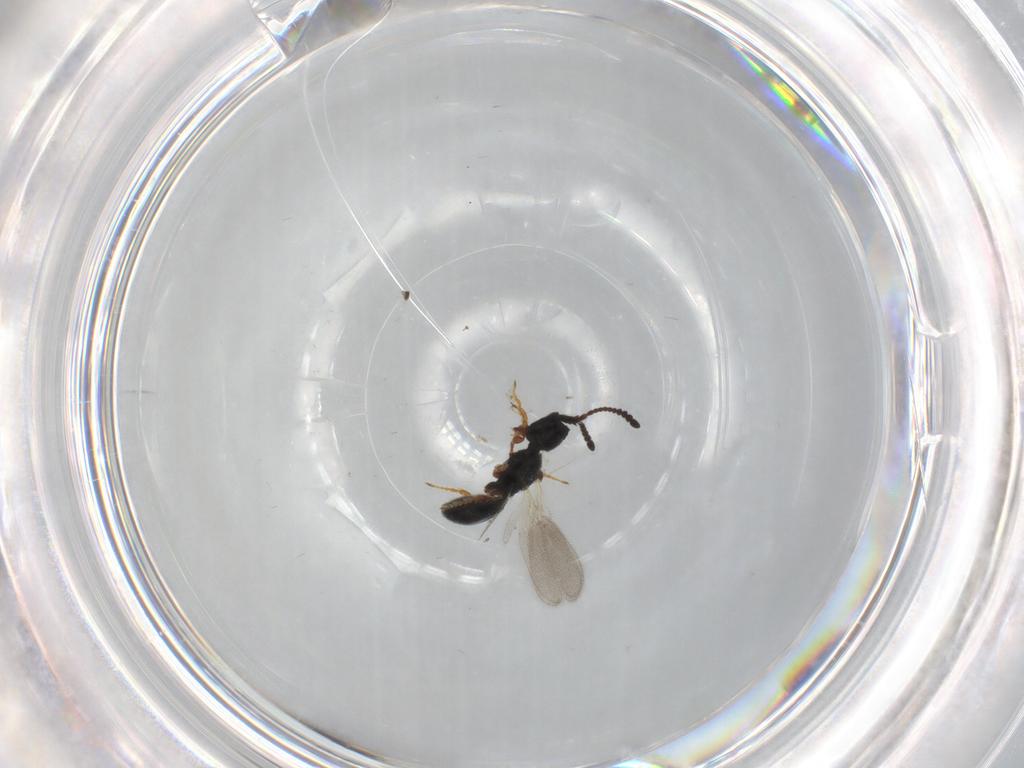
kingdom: Animalia
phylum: Arthropoda
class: Insecta
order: Hymenoptera
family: Diapriidae
